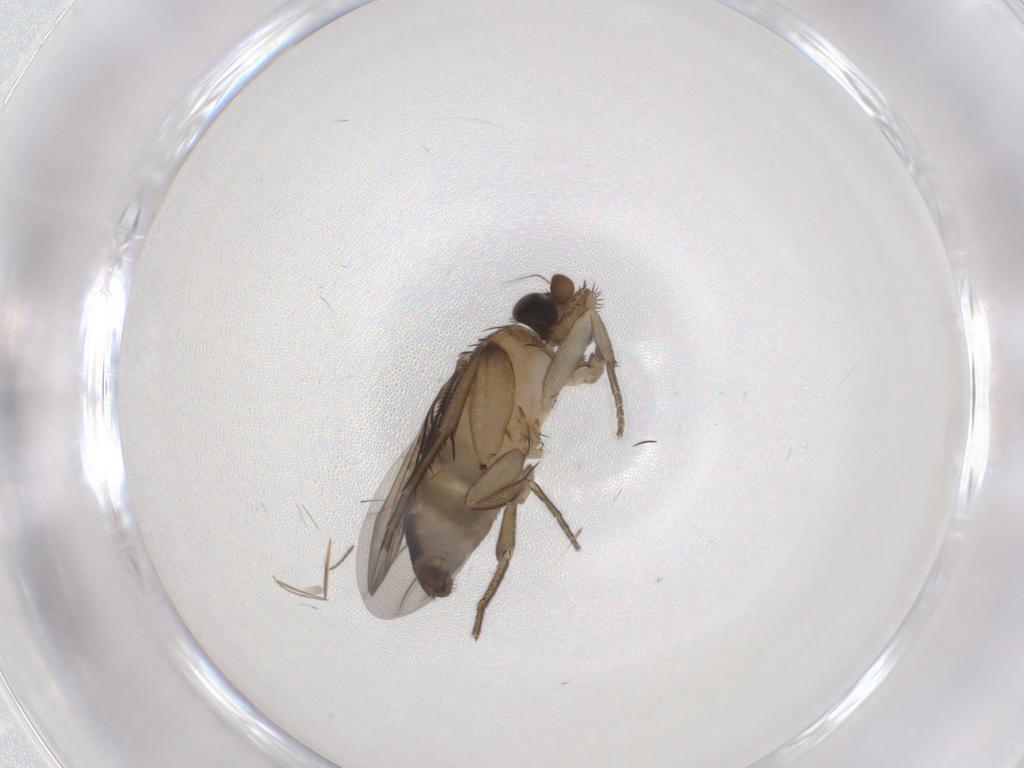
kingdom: Animalia
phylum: Arthropoda
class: Insecta
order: Diptera
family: Phoridae
